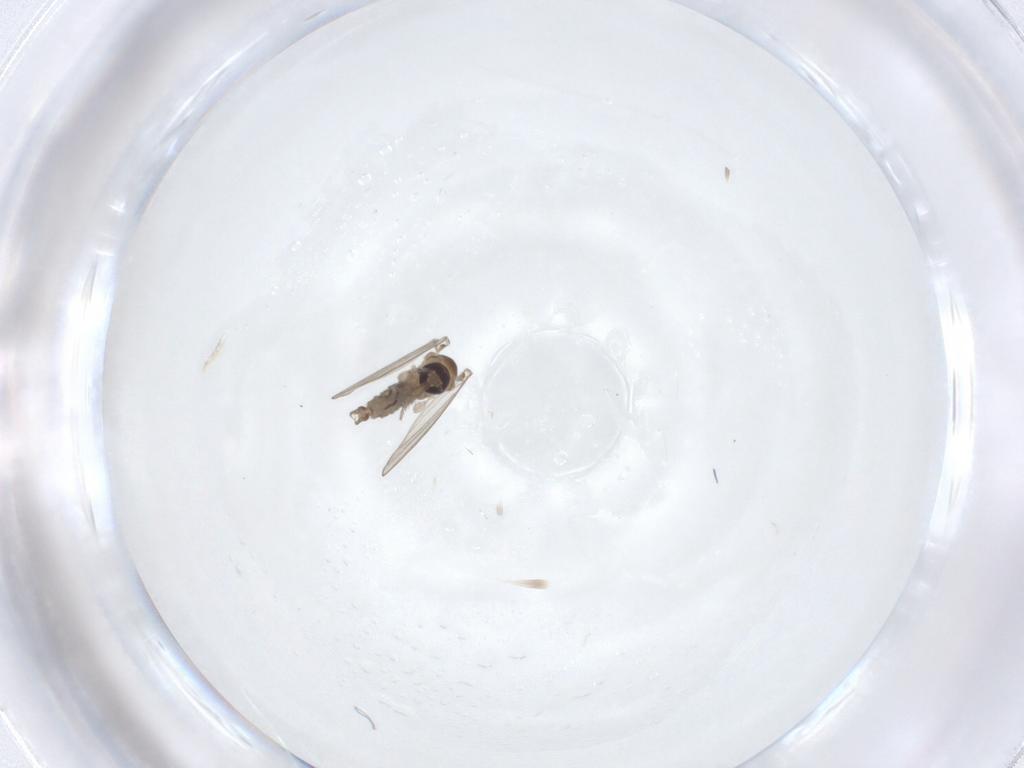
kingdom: Animalia
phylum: Arthropoda
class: Insecta
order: Diptera
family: Psychodidae
